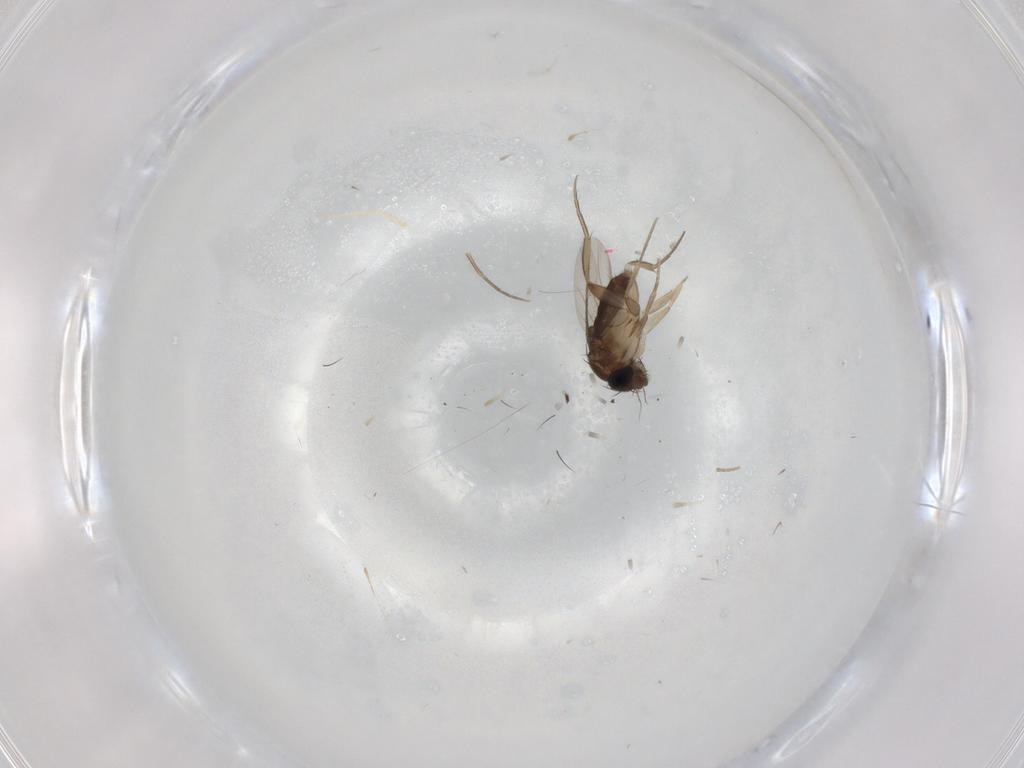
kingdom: Animalia
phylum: Arthropoda
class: Insecta
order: Diptera
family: Phoridae
